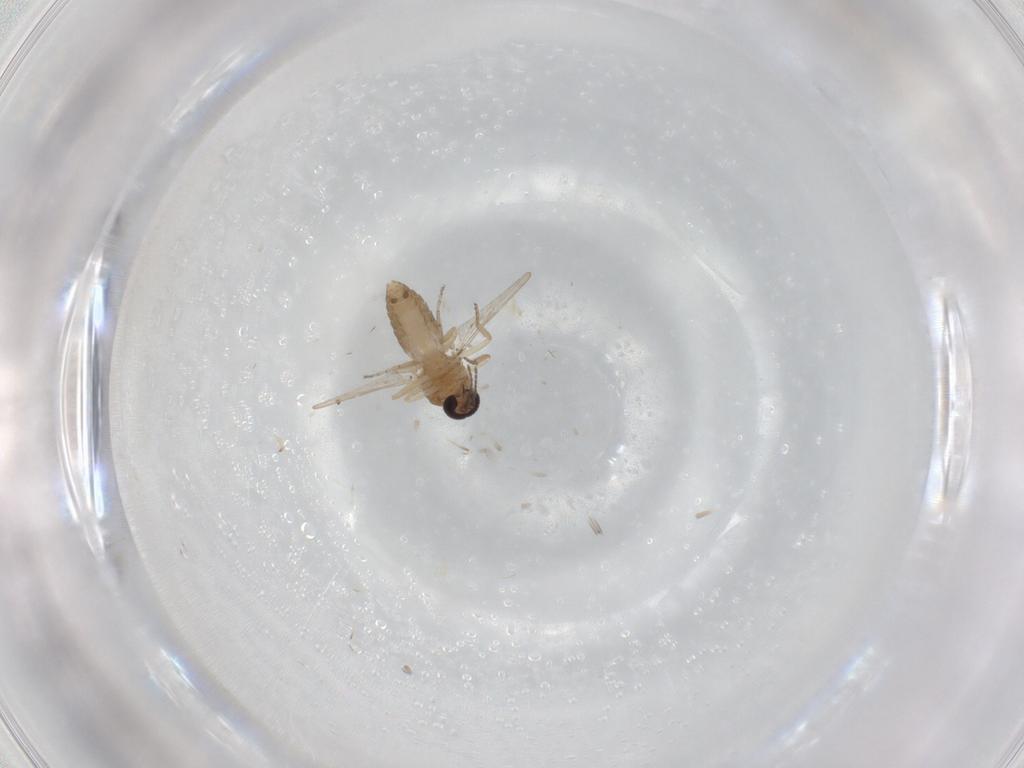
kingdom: Animalia
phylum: Arthropoda
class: Insecta
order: Diptera
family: Ceratopogonidae
